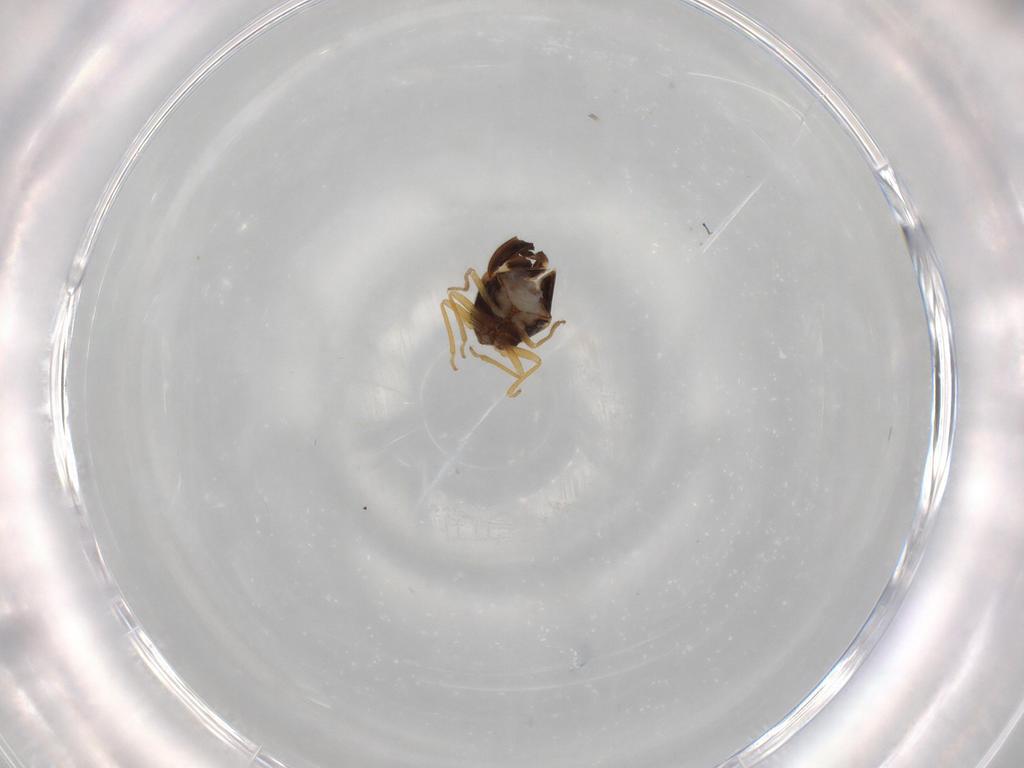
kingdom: Animalia
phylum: Arthropoda
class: Insecta
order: Hemiptera
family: Schizopteridae
